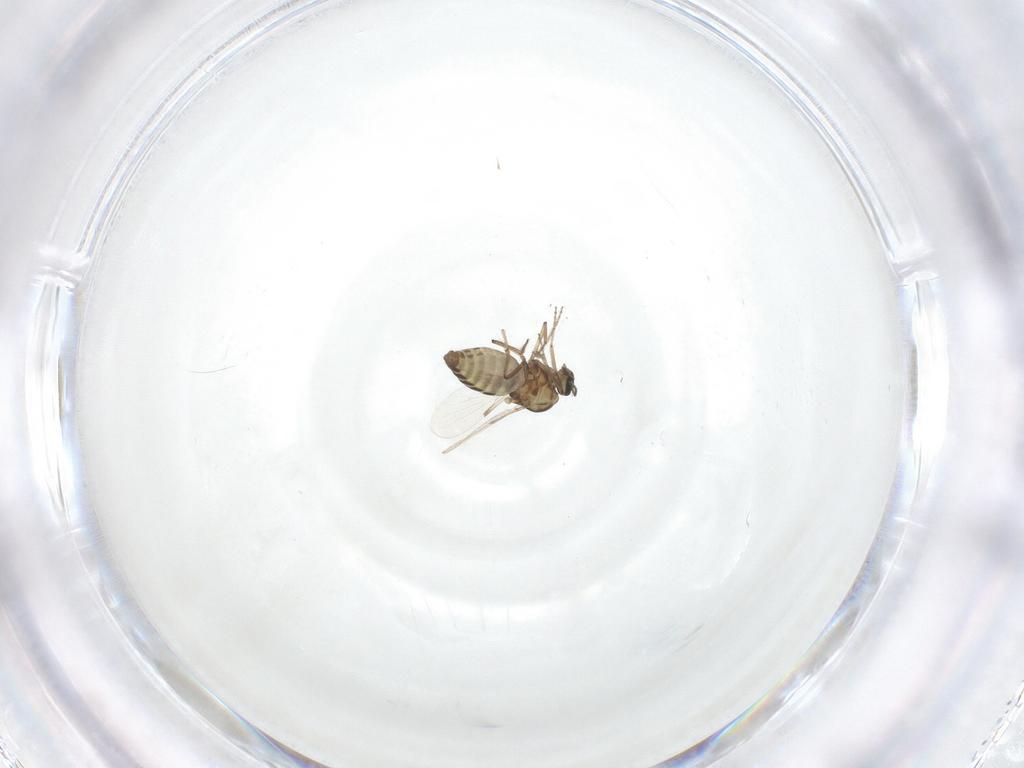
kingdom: Animalia
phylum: Arthropoda
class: Insecta
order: Diptera
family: Ceratopogonidae
